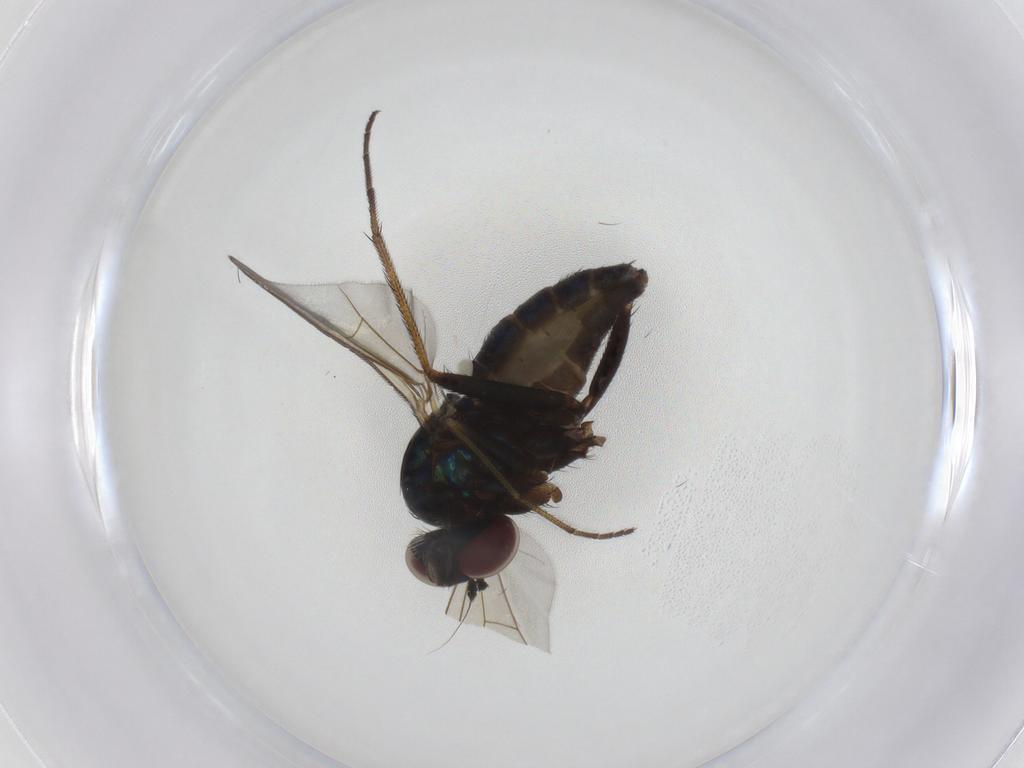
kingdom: Animalia
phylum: Arthropoda
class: Insecta
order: Diptera
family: Dolichopodidae
